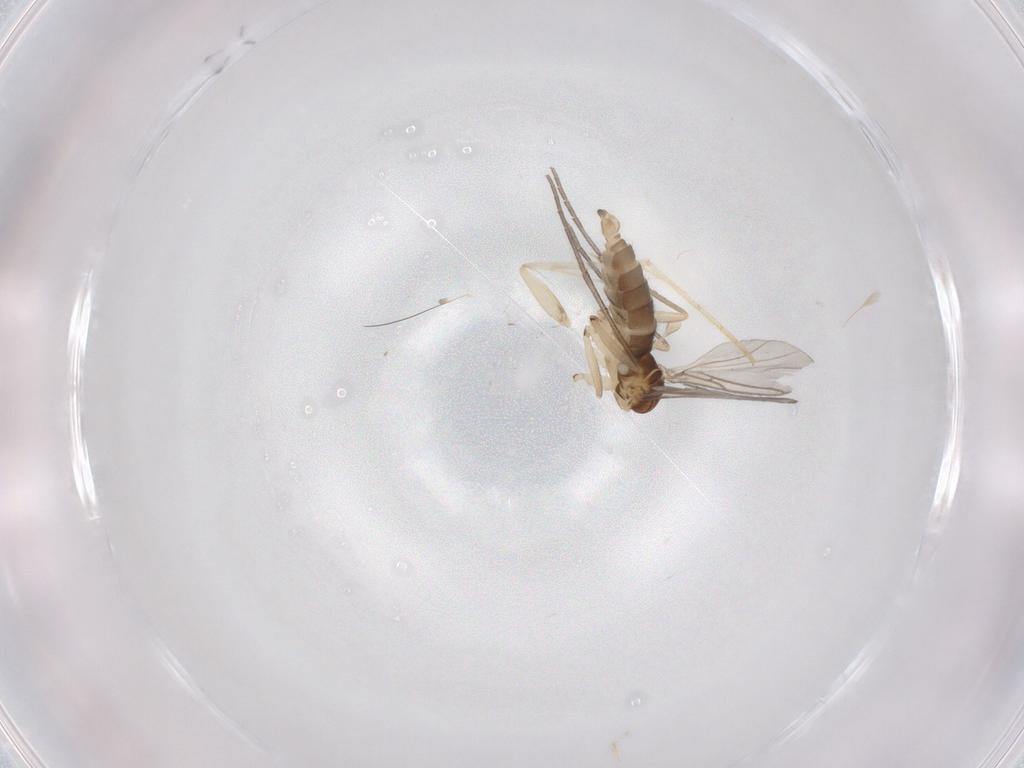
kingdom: Animalia
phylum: Arthropoda
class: Insecta
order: Diptera
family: Sciaridae
